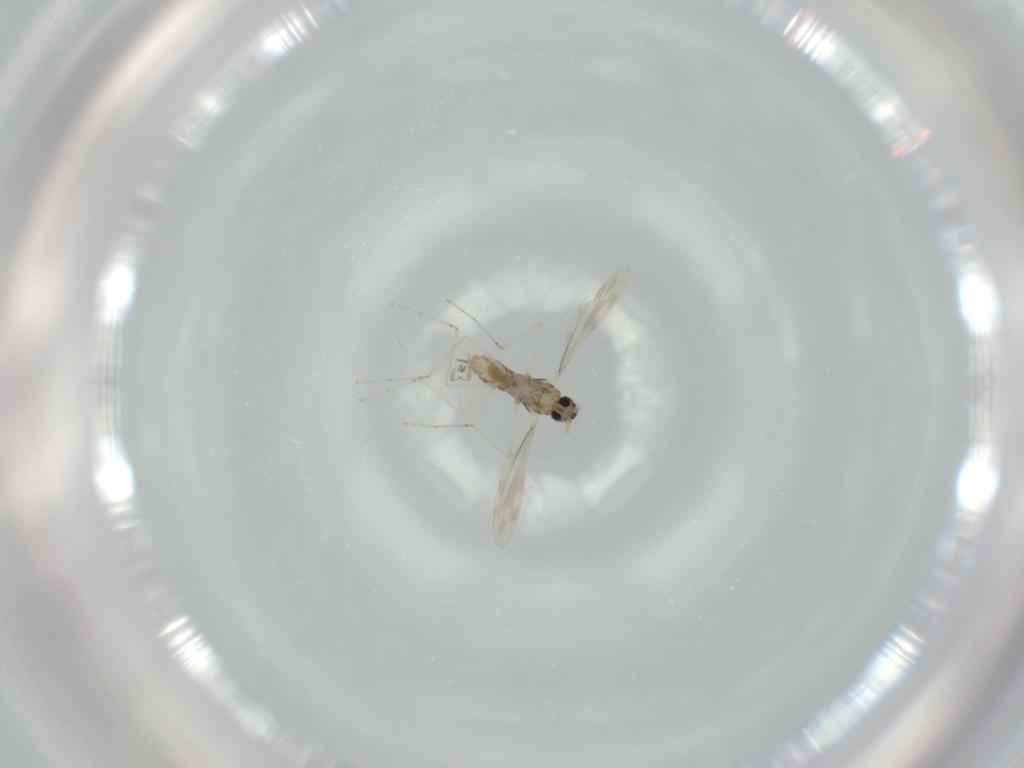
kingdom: Animalia
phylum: Arthropoda
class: Insecta
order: Diptera
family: Cecidomyiidae
